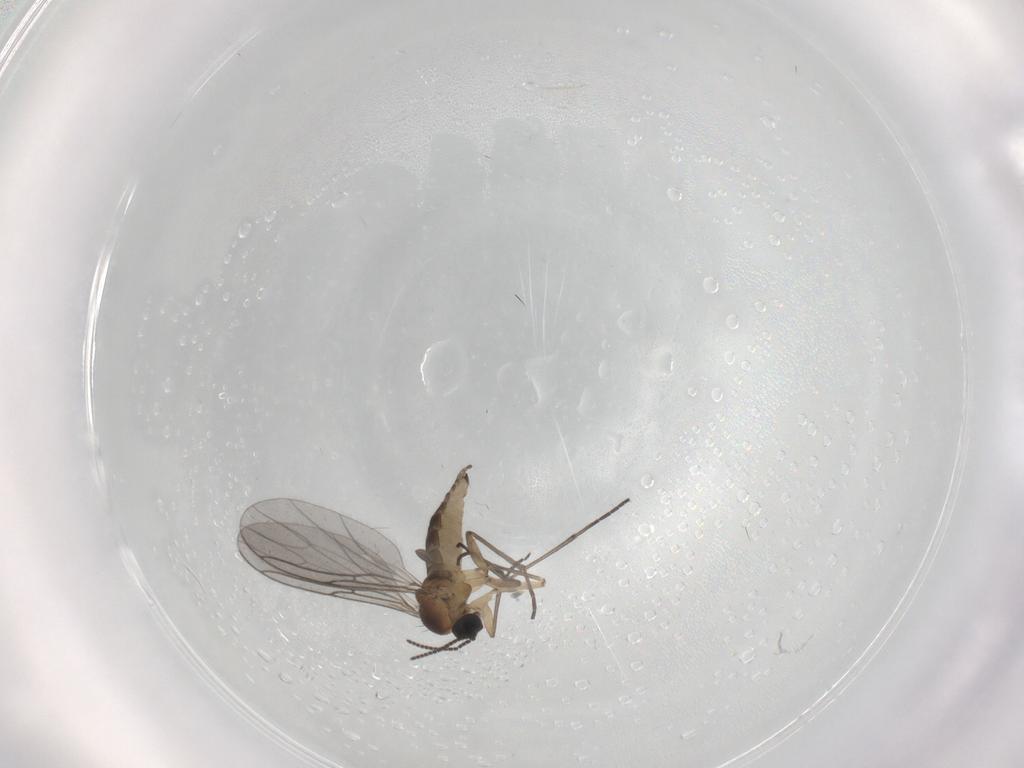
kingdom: Animalia
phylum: Arthropoda
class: Insecta
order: Diptera
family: Sciaridae
